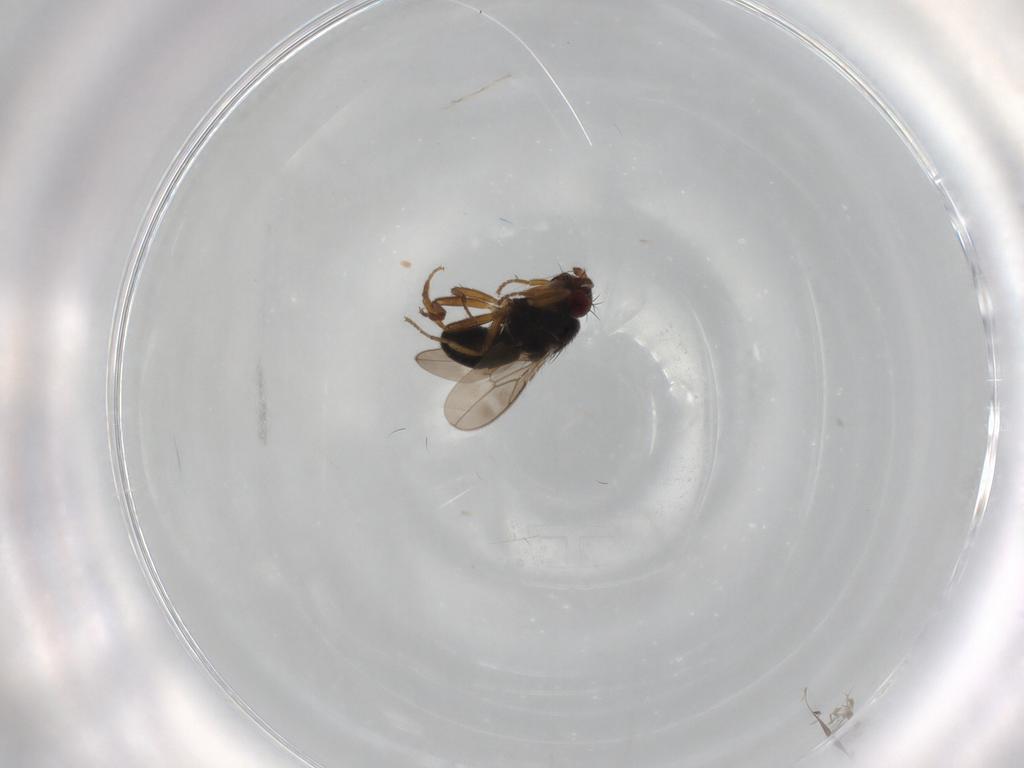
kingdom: Animalia
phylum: Arthropoda
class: Insecta
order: Diptera
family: Sphaeroceridae
